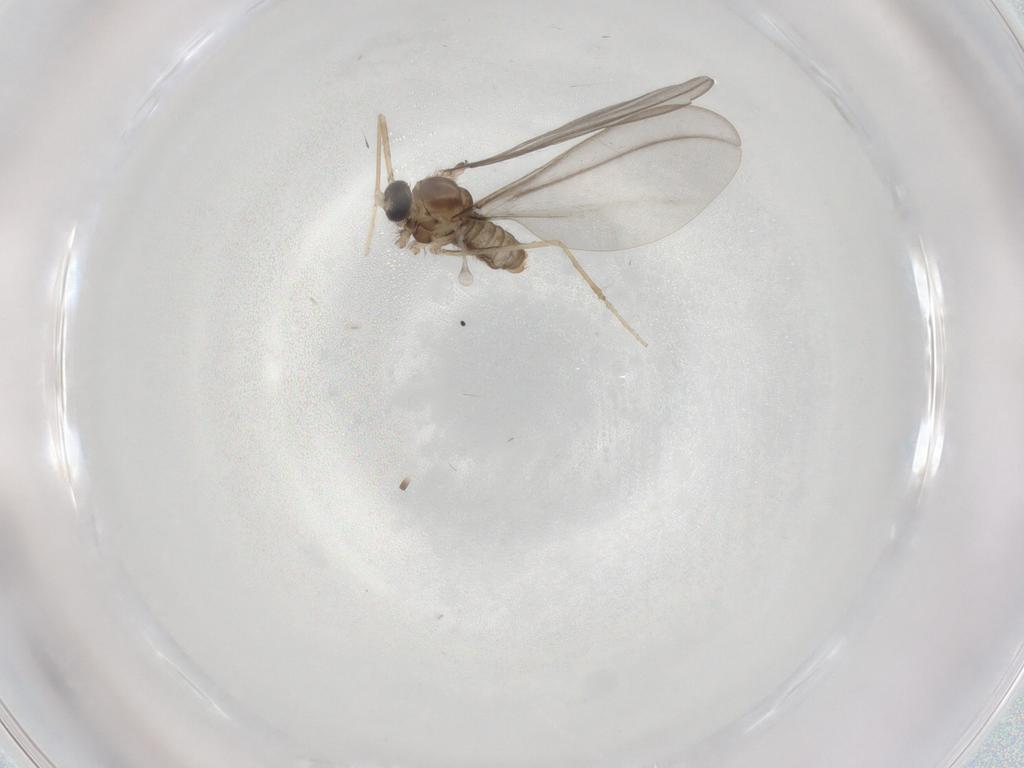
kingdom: Animalia
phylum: Arthropoda
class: Insecta
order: Diptera
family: Cecidomyiidae
